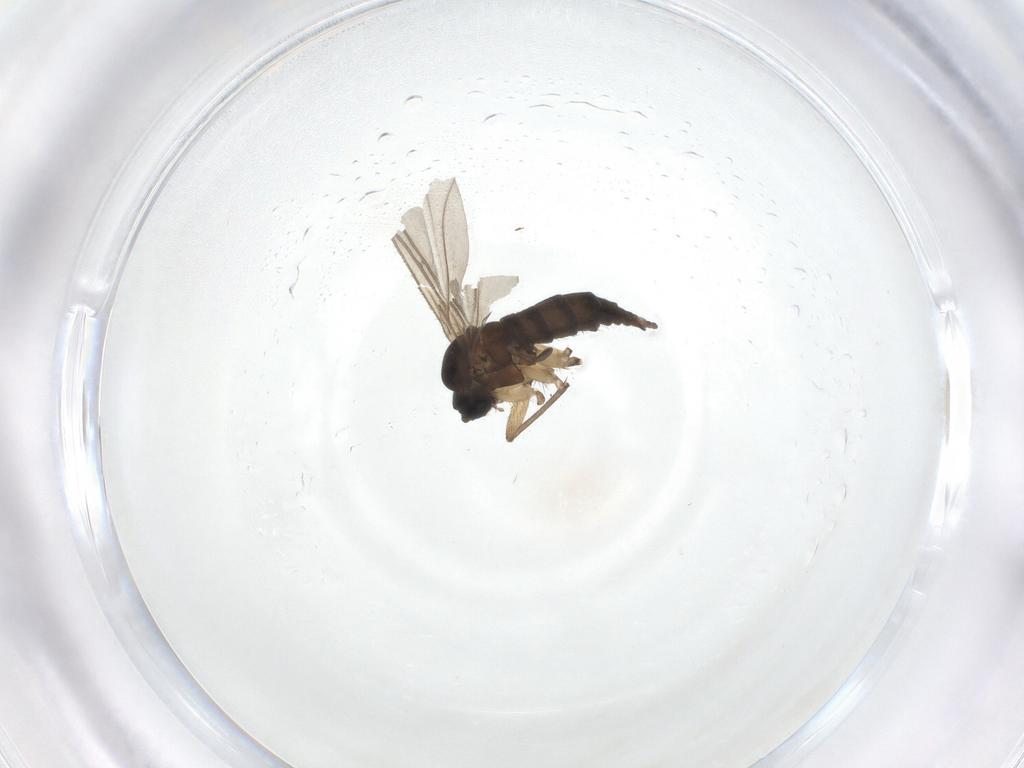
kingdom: Animalia
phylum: Arthropoda
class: Insecta
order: Diptera
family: Sciaridae
